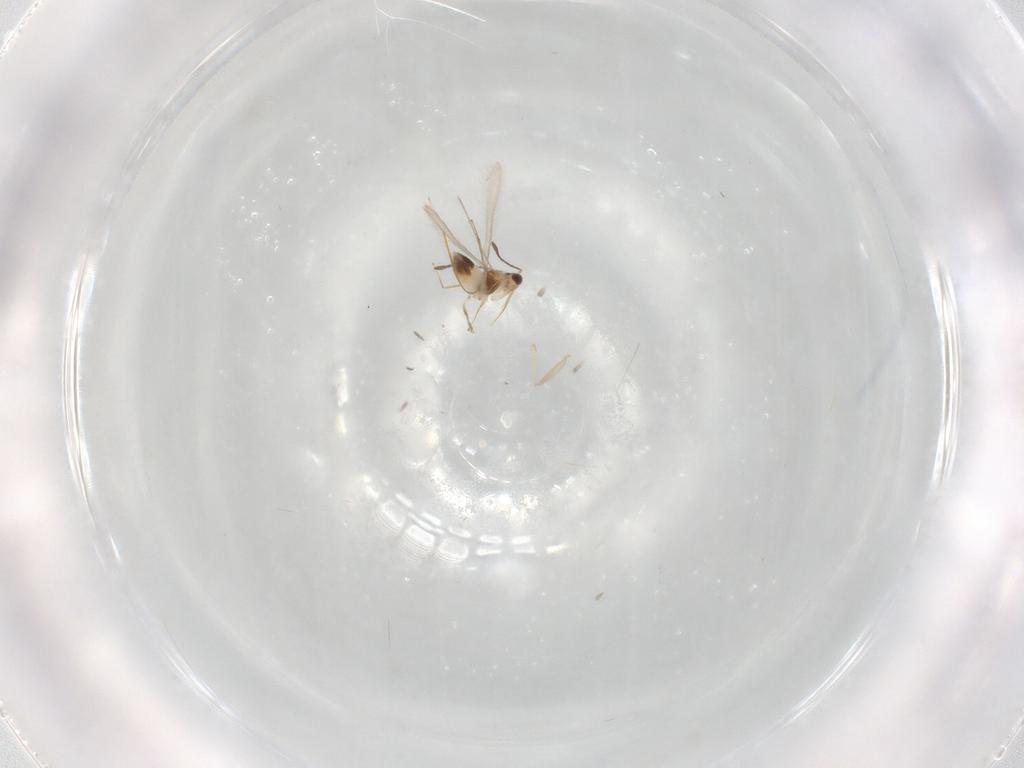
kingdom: Animalia
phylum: Arthropoda
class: Insecta
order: Hymenoptera
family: Mymaridae
